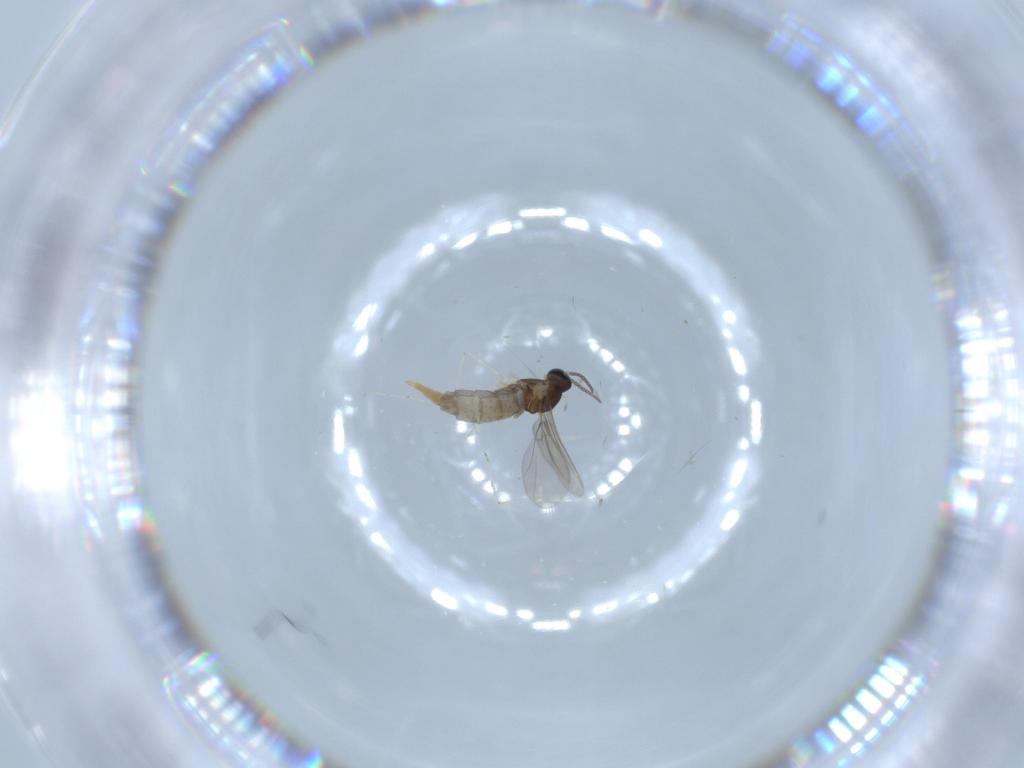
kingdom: Animalia
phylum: Arthropoda
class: Insecta
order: Diptera
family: Cecidomyiidae
